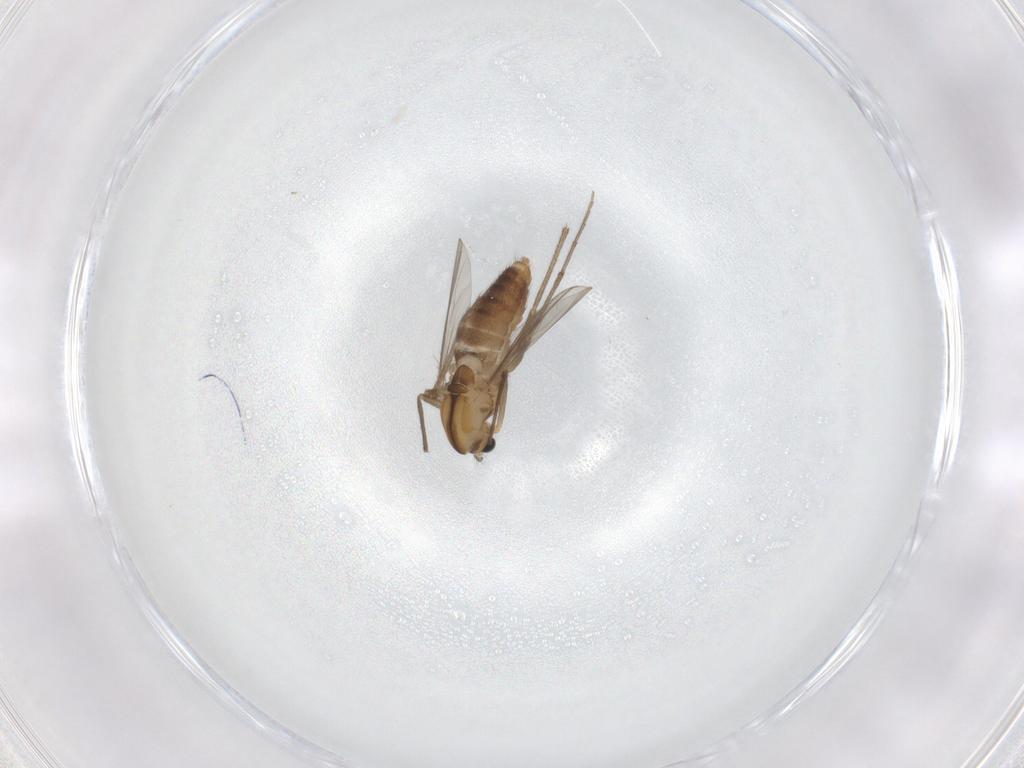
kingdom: Animalia
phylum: Arthropoda
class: Insecta
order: Diptera
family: Chironomidae
